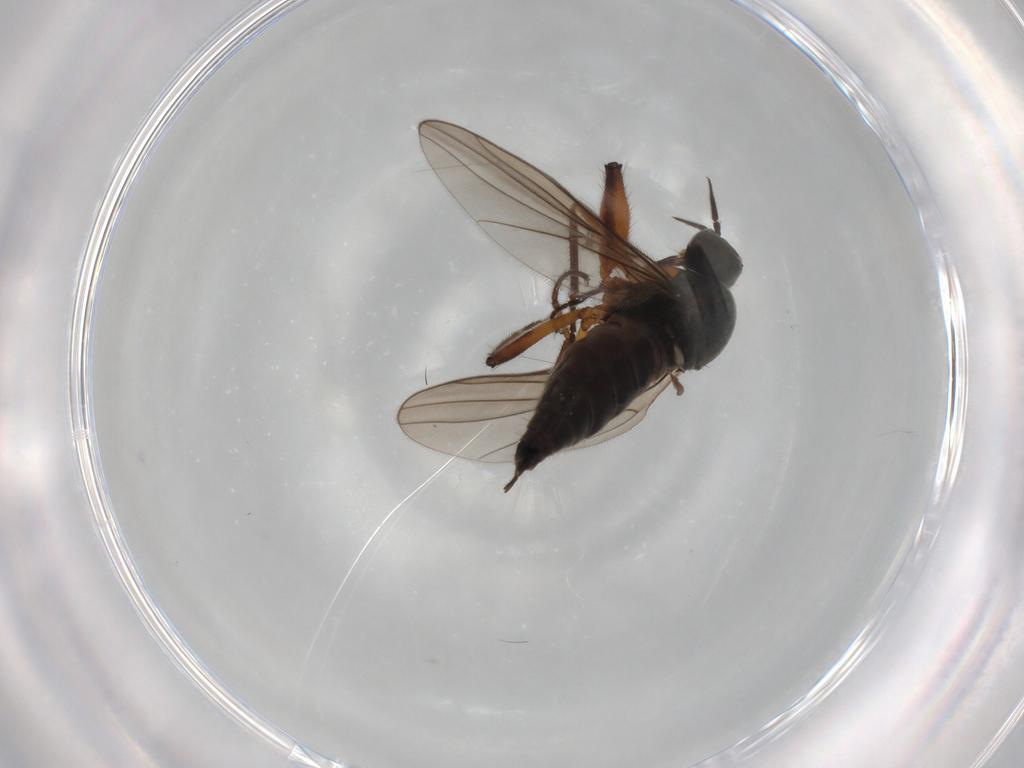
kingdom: Animalia
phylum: Arthropoda
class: Insecta
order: Diptera
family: Hybotidae
